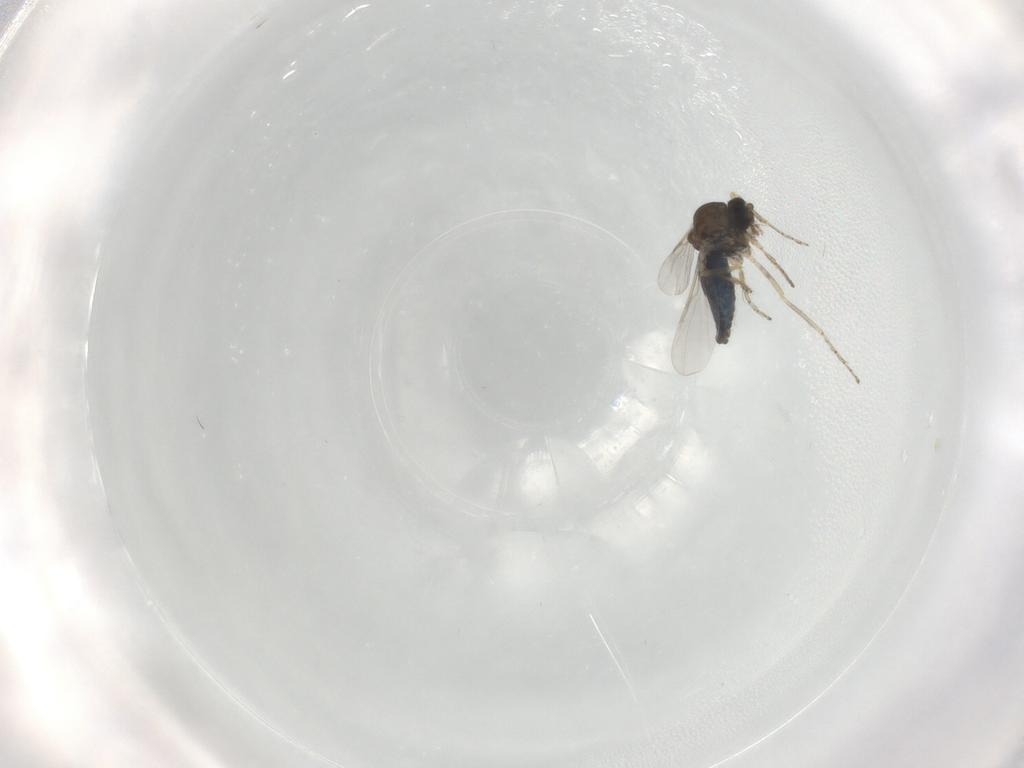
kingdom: Animalia
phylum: Arthropoda
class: Insecta
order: Diptera
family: Ceratopogonidae
